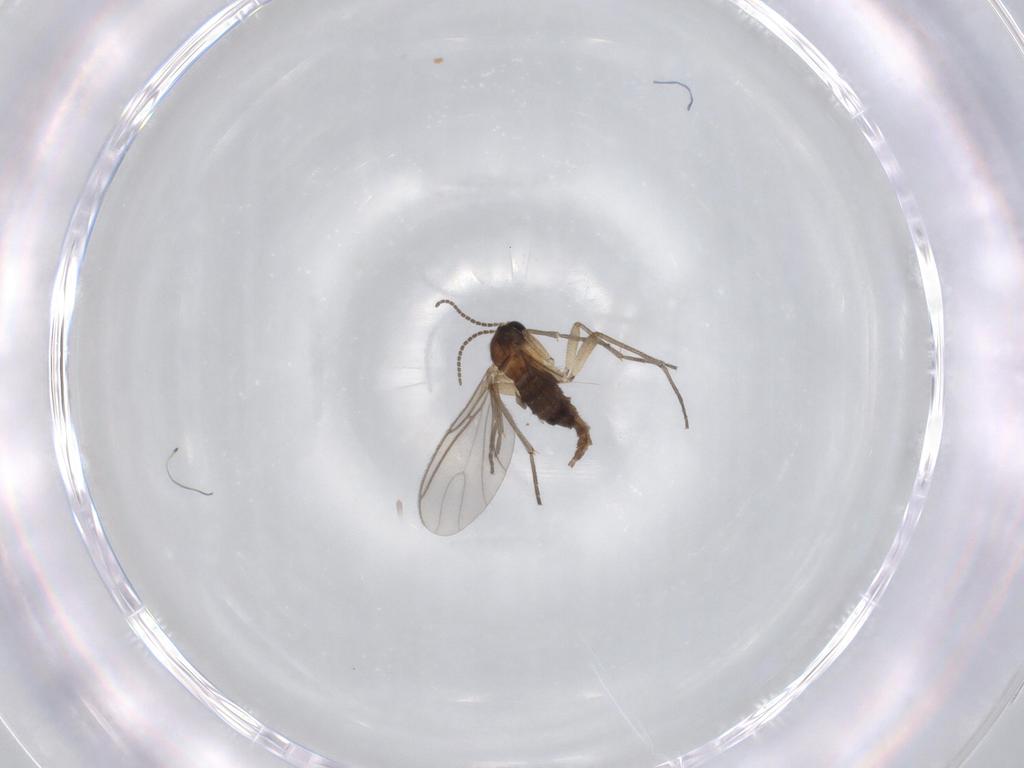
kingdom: Animalia
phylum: Arthropoda
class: Insecta
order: Diptera
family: Sciaridae
